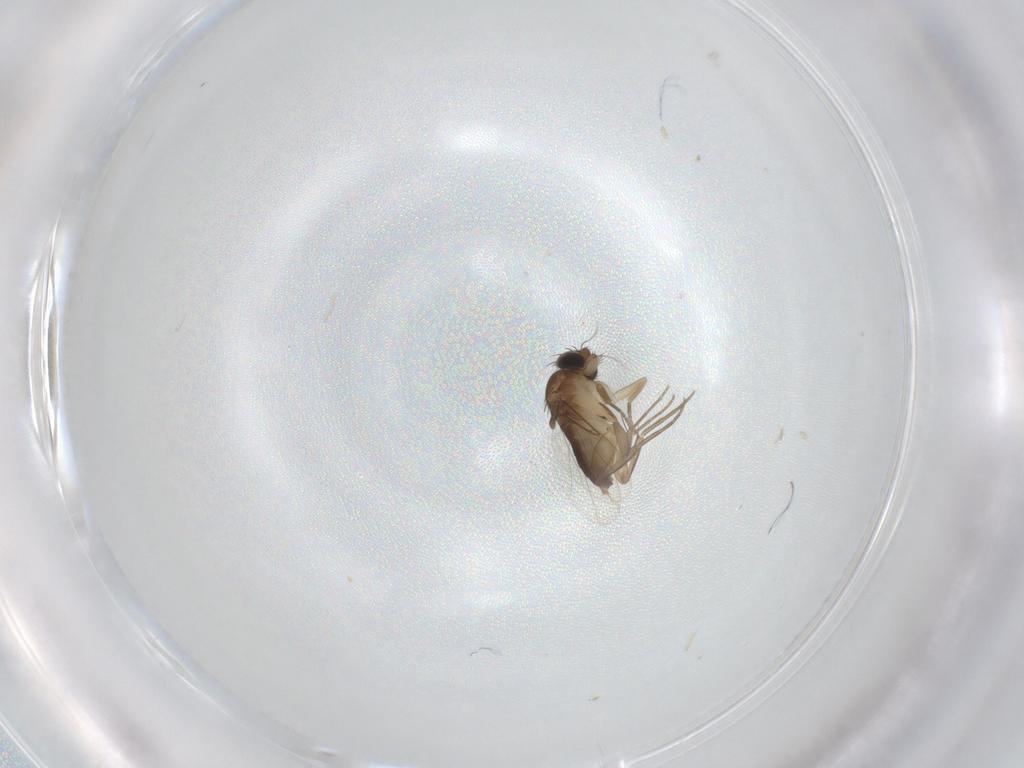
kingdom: Animalia
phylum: Arthropoda
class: Insecta
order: Diptera
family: Phoridae
